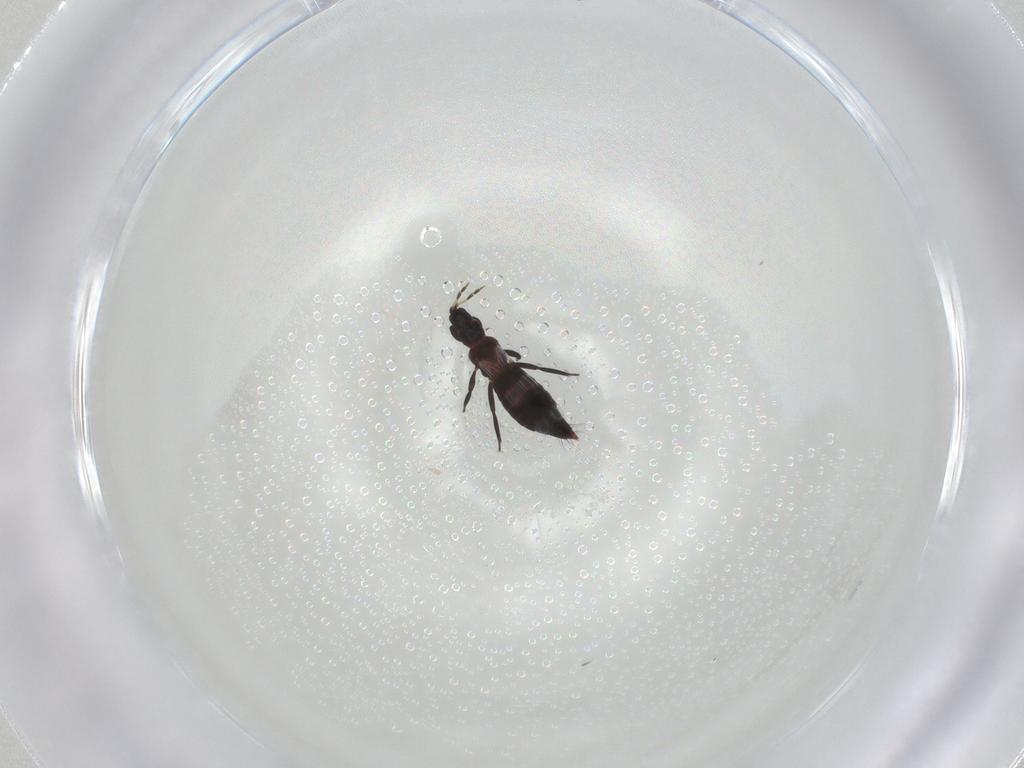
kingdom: Animalia
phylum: Arthropoda
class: Insecta
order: Thysanoptera
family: Aeolothripidae
